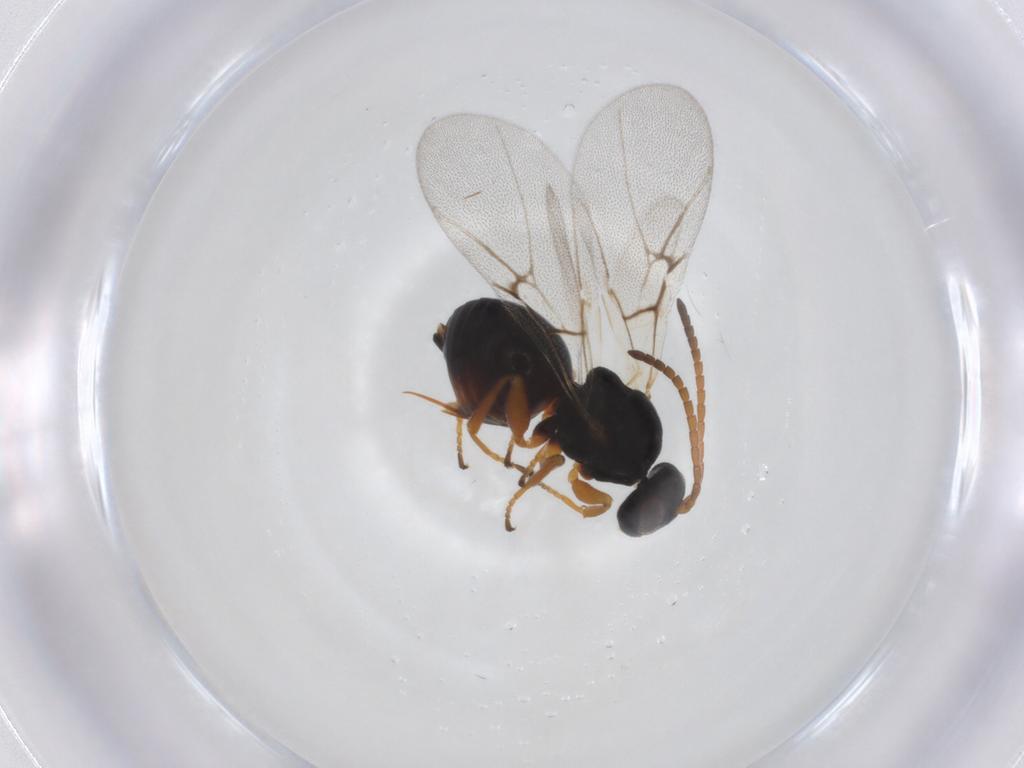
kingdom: Animalia
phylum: Arthropoda
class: Insecta
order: Hymenoptera
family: Cynipidae
